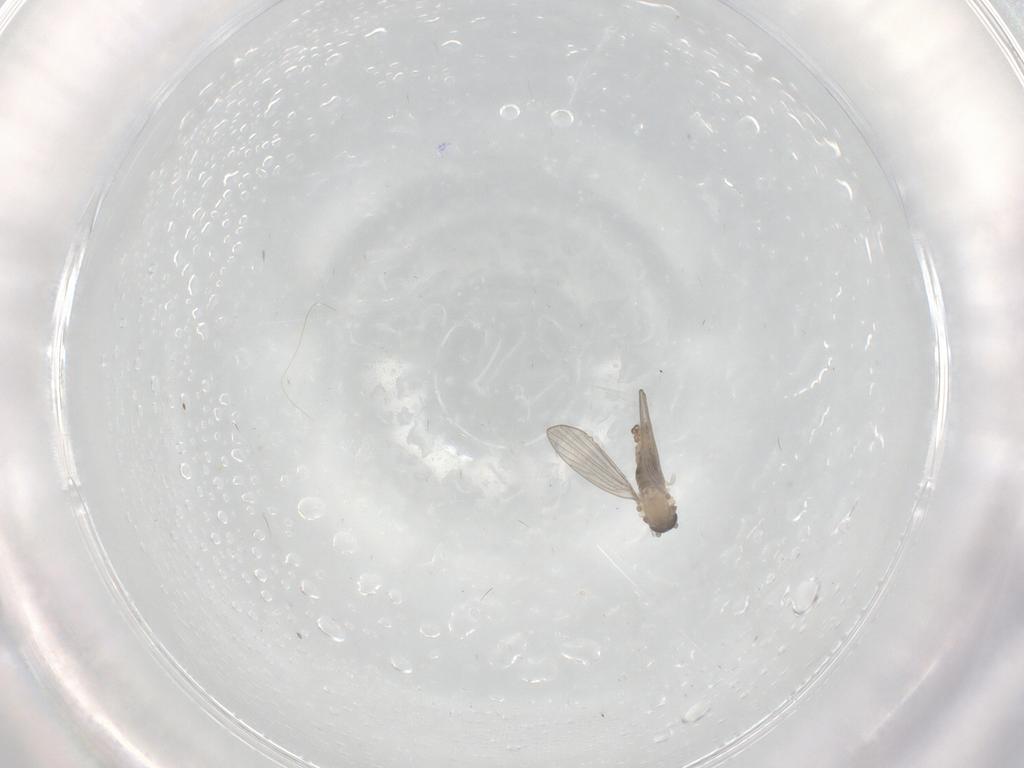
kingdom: Animalia
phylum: Arthropoda
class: Insecta
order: Diptera
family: Psychodidae
